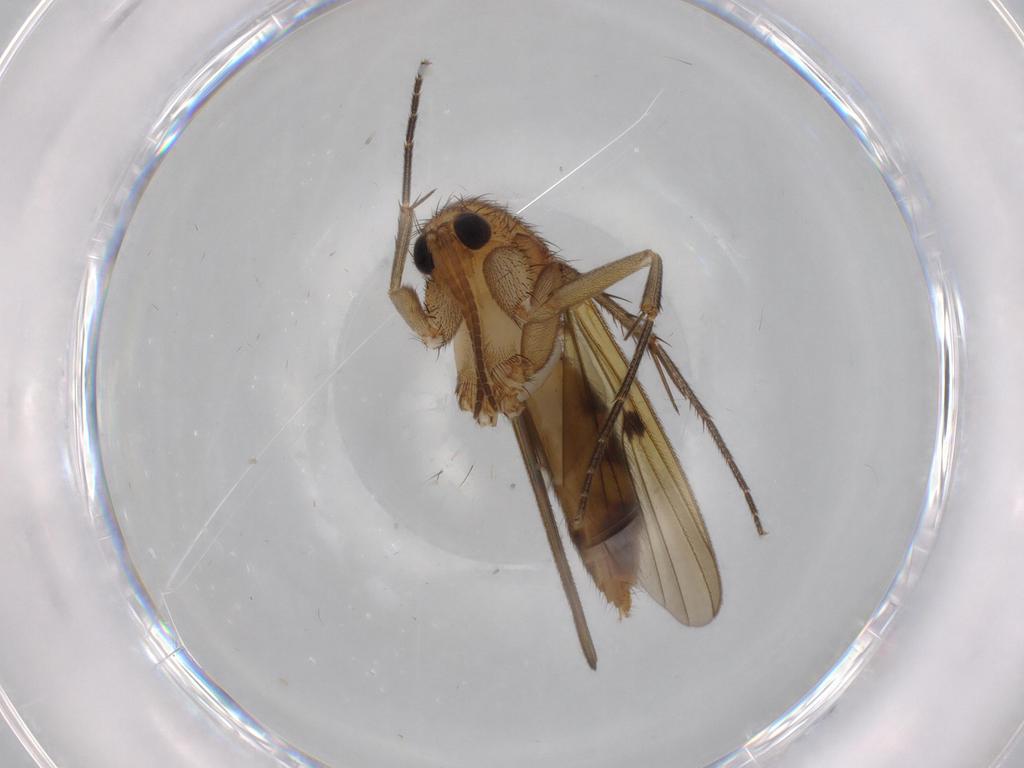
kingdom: Animalia
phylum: Arthropoda
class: Insecta
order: Diptera
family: Mycetophilidae
